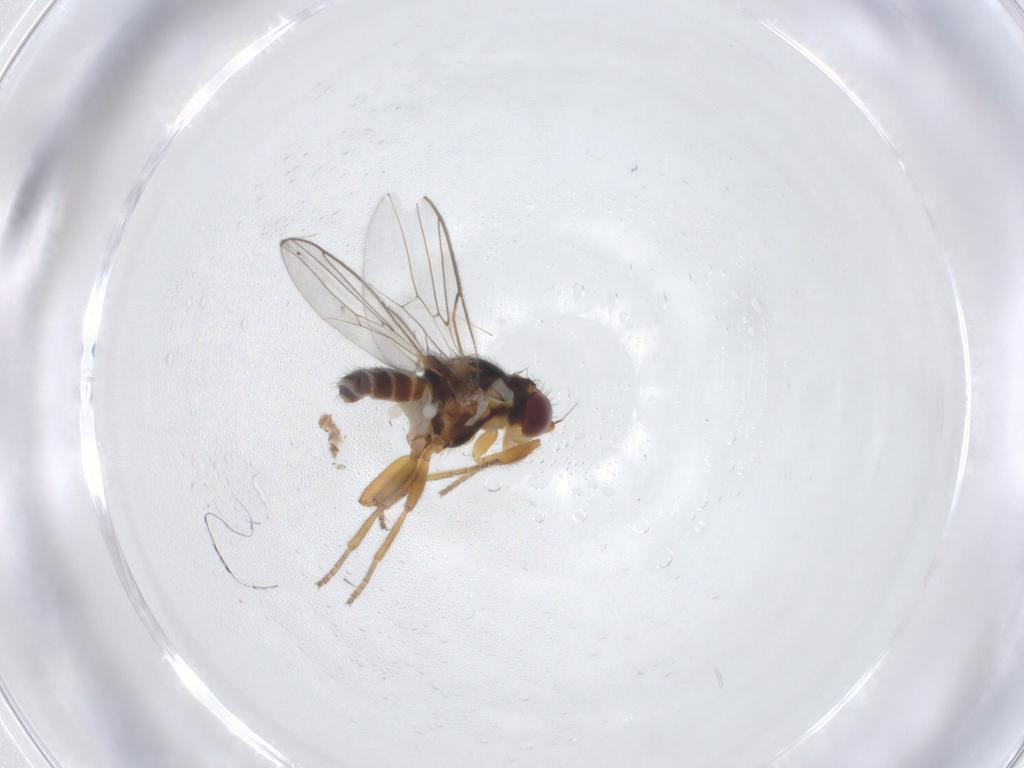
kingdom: Animalia
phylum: Arthropoda
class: Insecta
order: Diptera
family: Chloropidae
